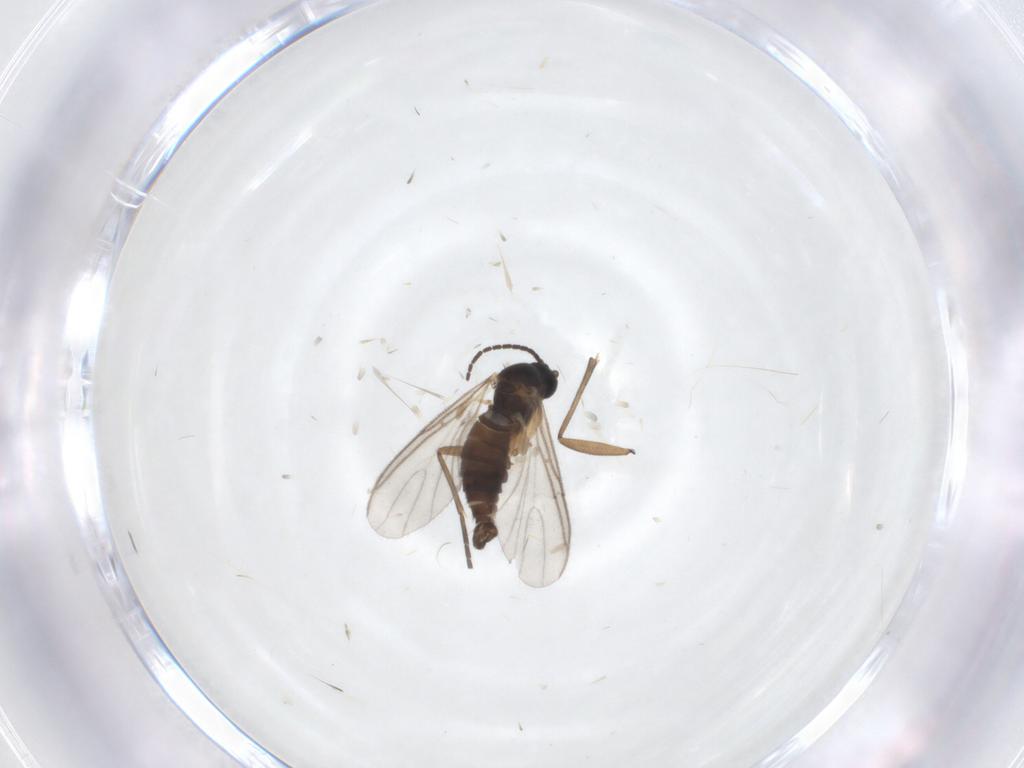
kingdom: Animalia
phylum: Arthropoda
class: Insecta
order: Diptera
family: Sciaridae
